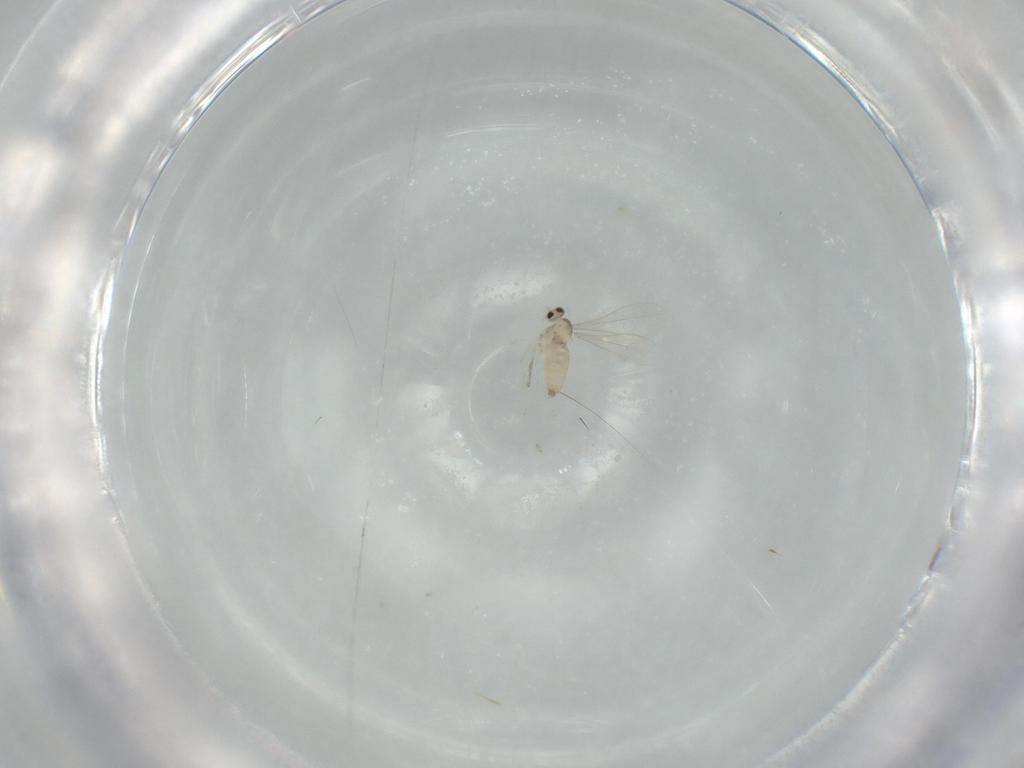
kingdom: Animalia
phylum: Arthropoda
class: Insecta
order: Diptera
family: Cecidomyiidae
